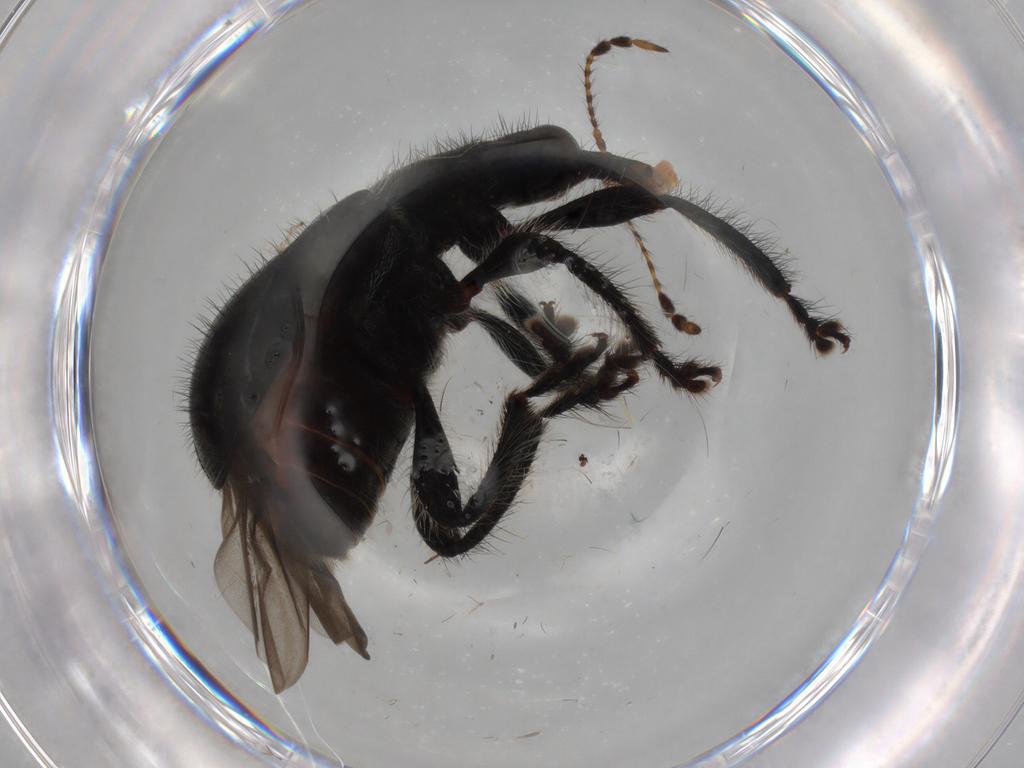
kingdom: Animalia
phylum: Arthropoda
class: Insecta
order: Coleoptera
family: Attelabidae
